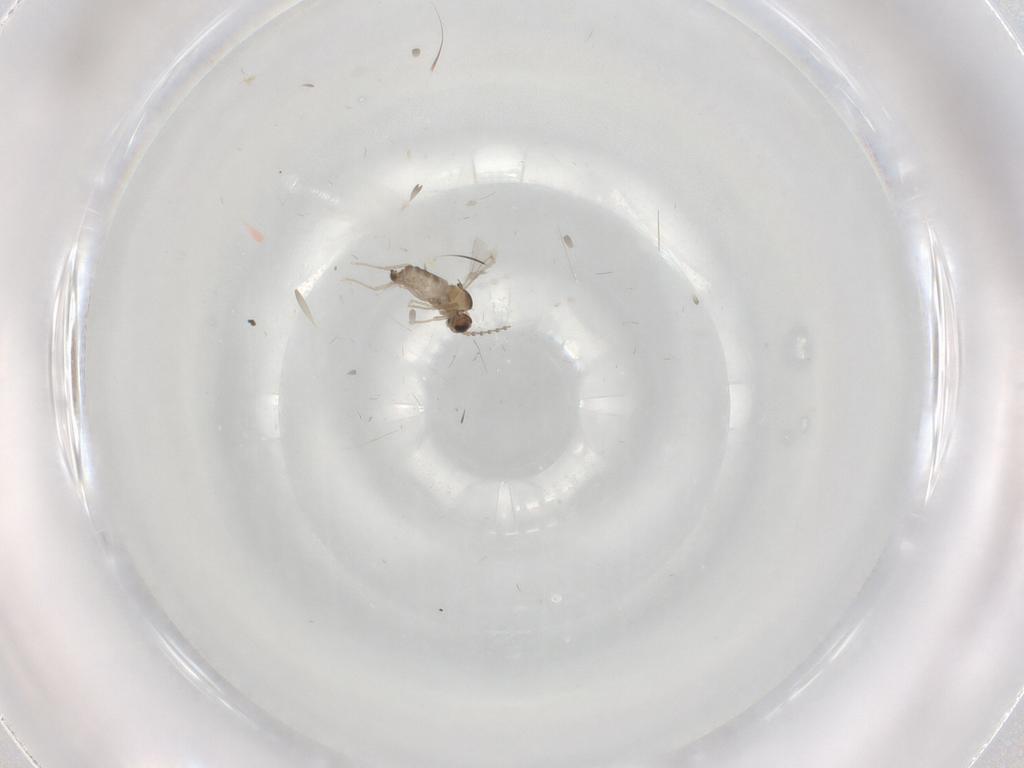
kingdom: Animalia
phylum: Arthropoda
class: Insecta
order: Diptera
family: Cecidomyiidae
